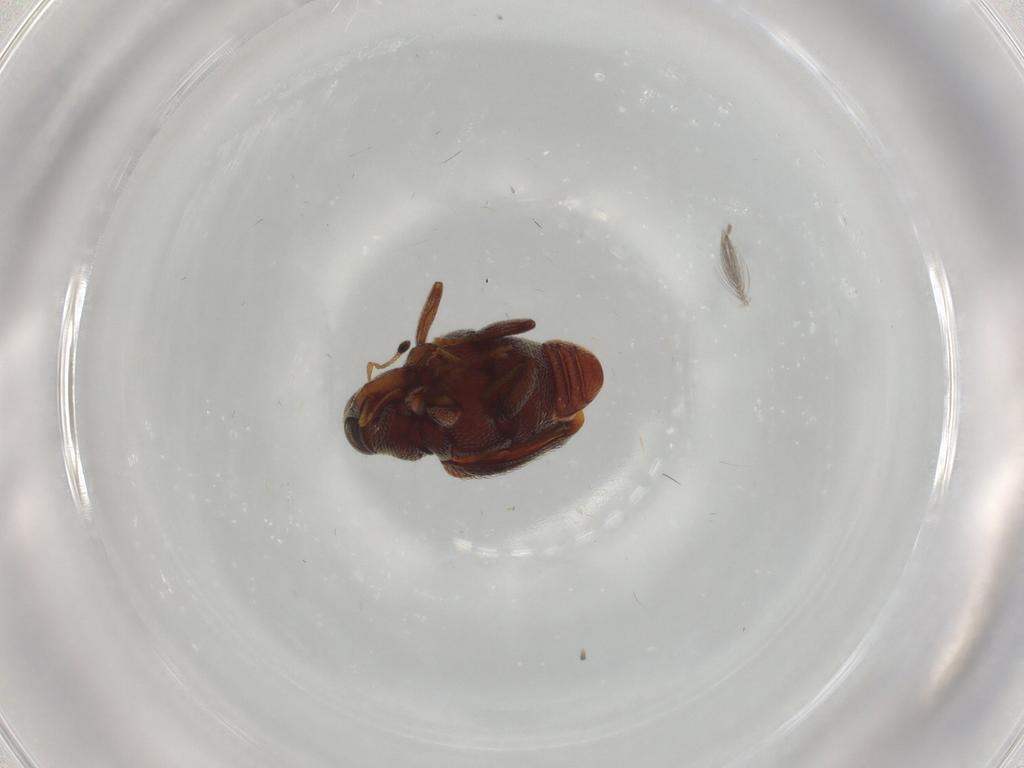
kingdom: Animalia
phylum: Arthropoda
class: Insecta
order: Coleoptera
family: Curculionidae
